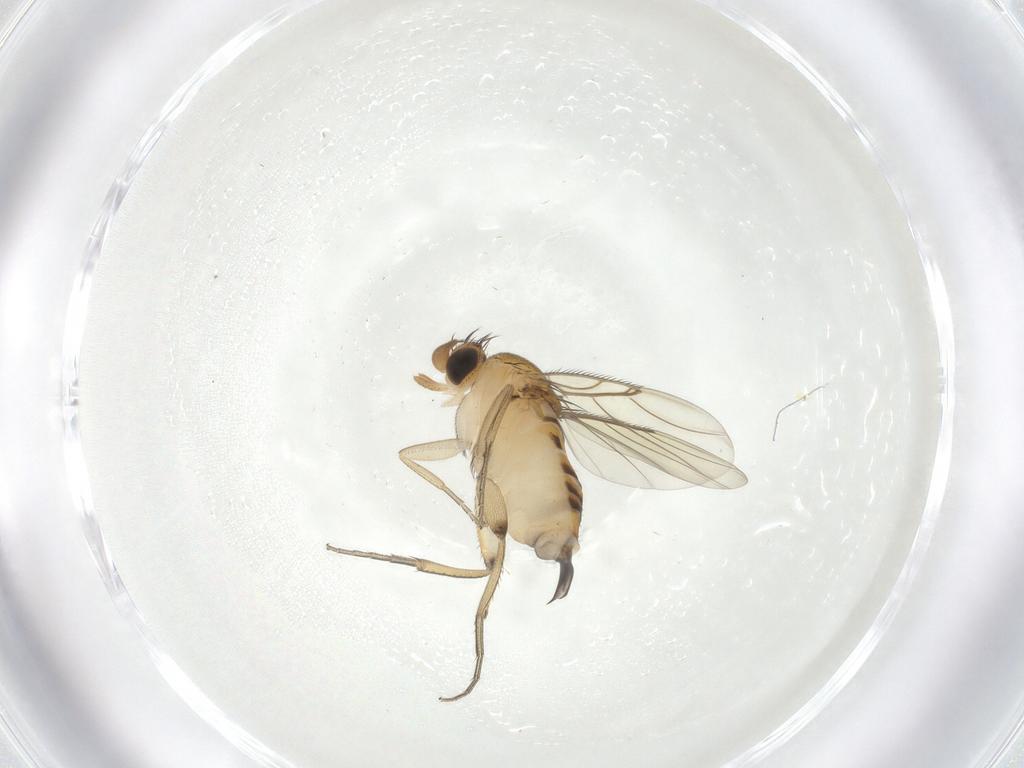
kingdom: Animalia
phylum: Arthropoda
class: Insecta
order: Diptera
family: Phoridae
